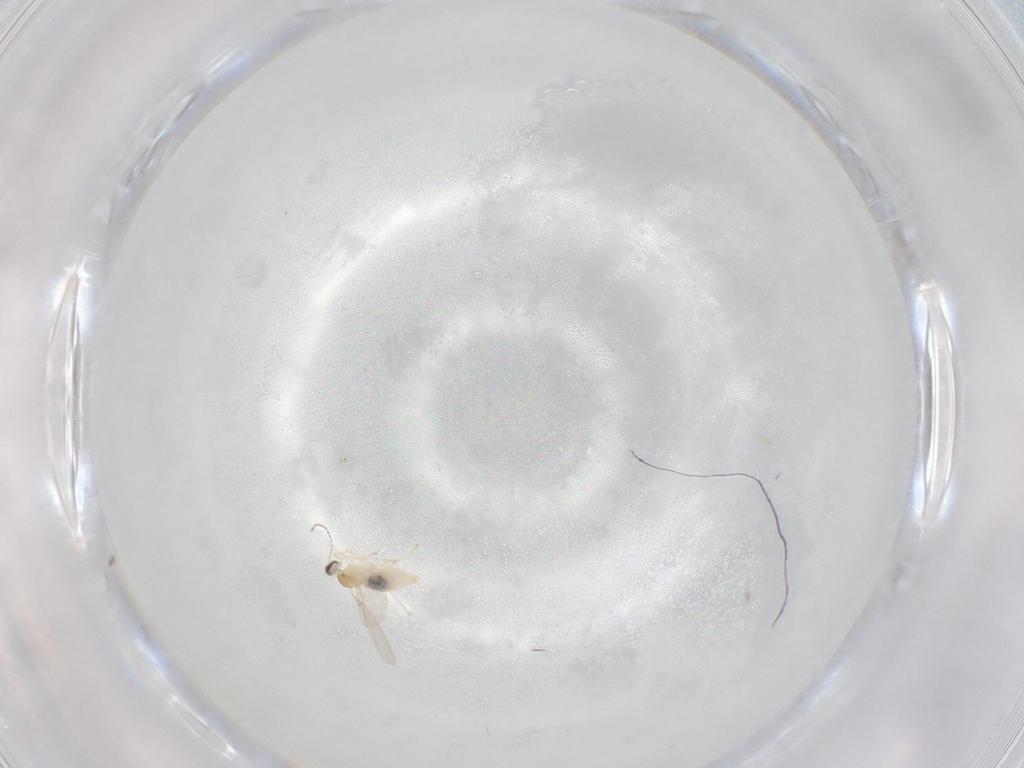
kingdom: Animalia
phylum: Arthropoda
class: Insecta
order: Diptera
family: Cecidomyiidae
